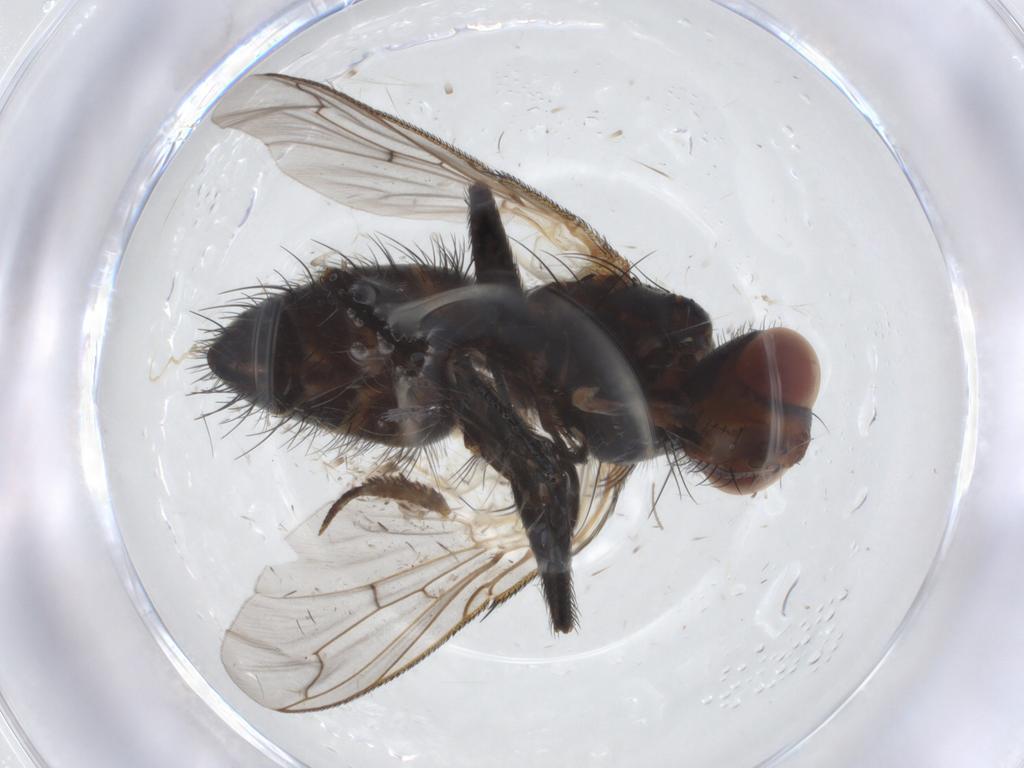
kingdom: Animalia
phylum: Arthropoda
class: Insecta
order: Diptera
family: Tachinidae
